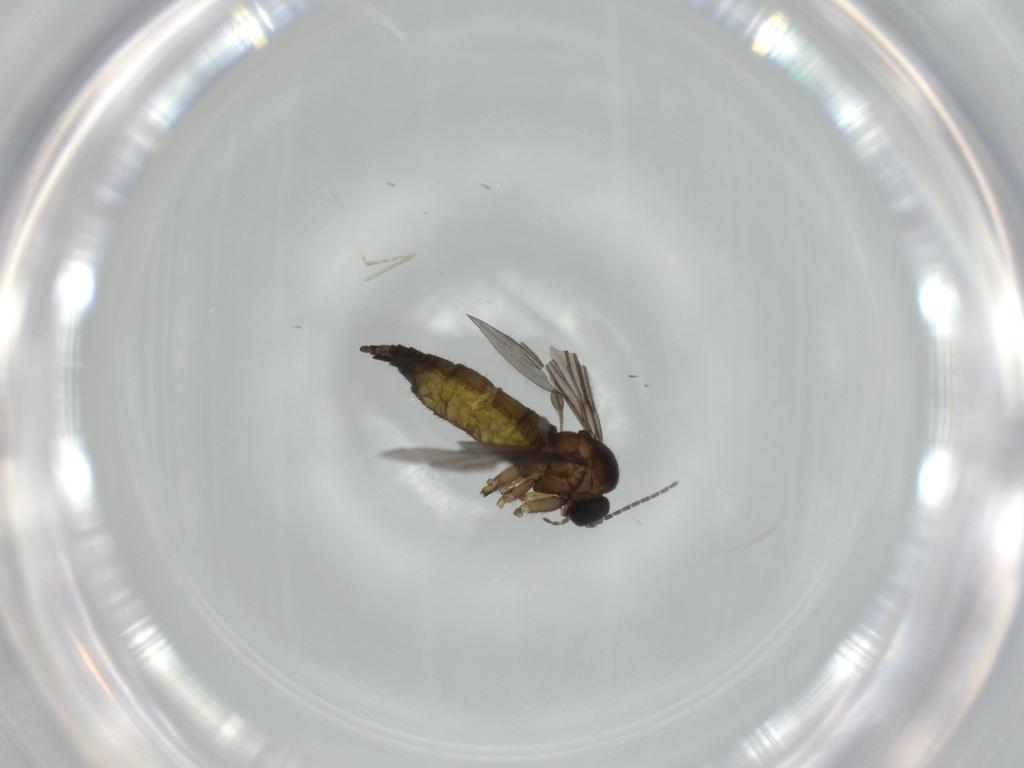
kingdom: Animalia
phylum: Arthropoda
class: Insecta
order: Diptera
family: Sciaridae
